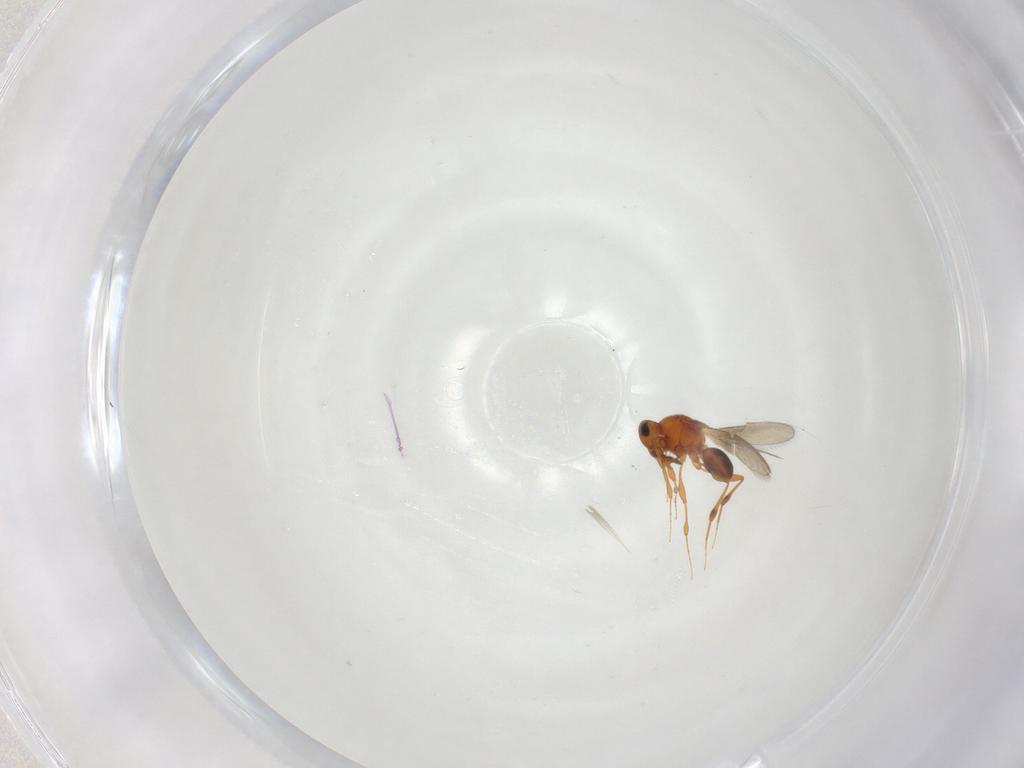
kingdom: Animalia
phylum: Arthropoda
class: Insecta
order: Hymenoptera
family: Platygastridae
